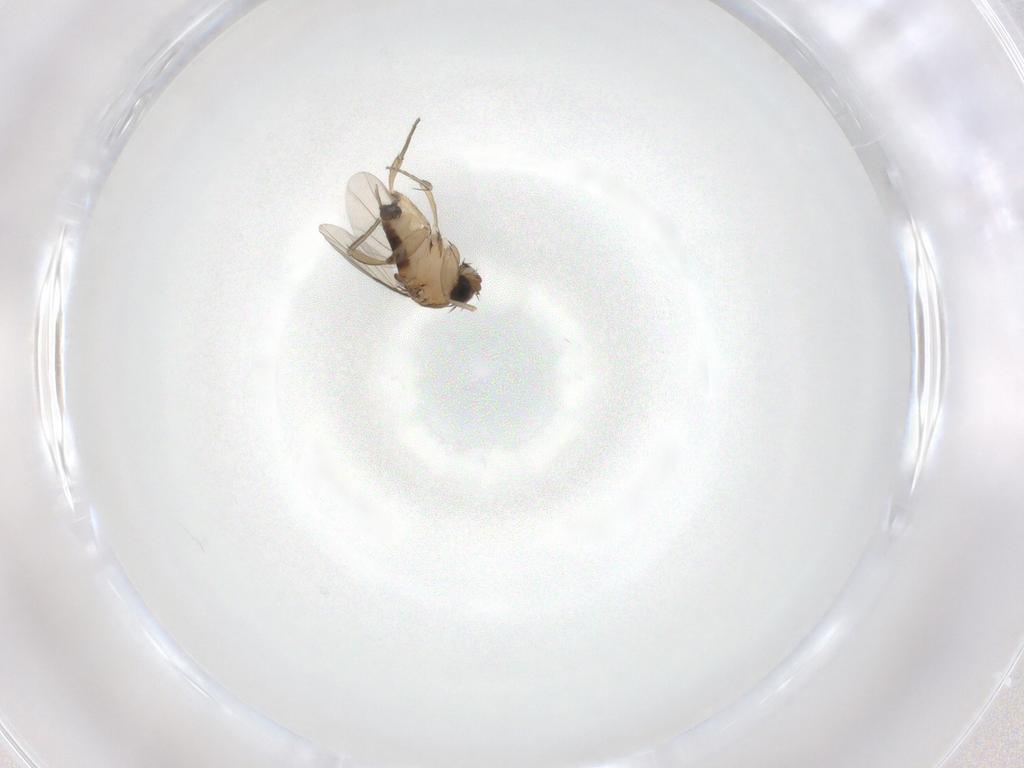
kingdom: Animalia
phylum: Arthropoda
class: Insecta
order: Diptera
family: Phoridae
